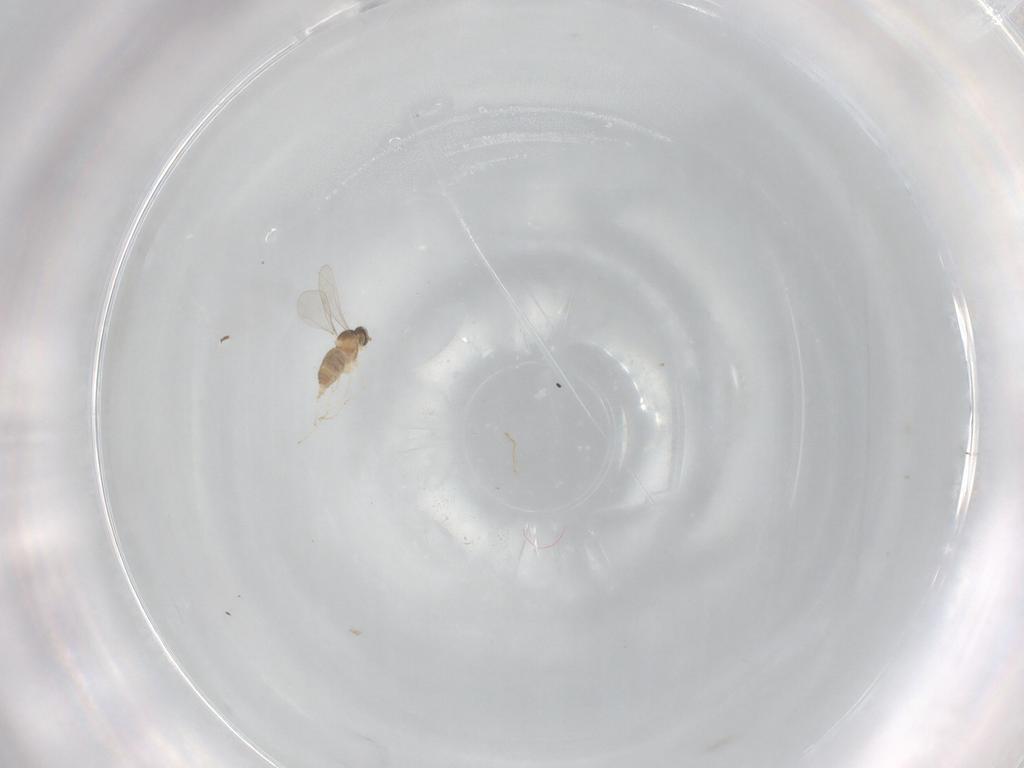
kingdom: Animalia
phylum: Arthropoda
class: Insecta
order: Diptera
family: Cecidomyiidae
